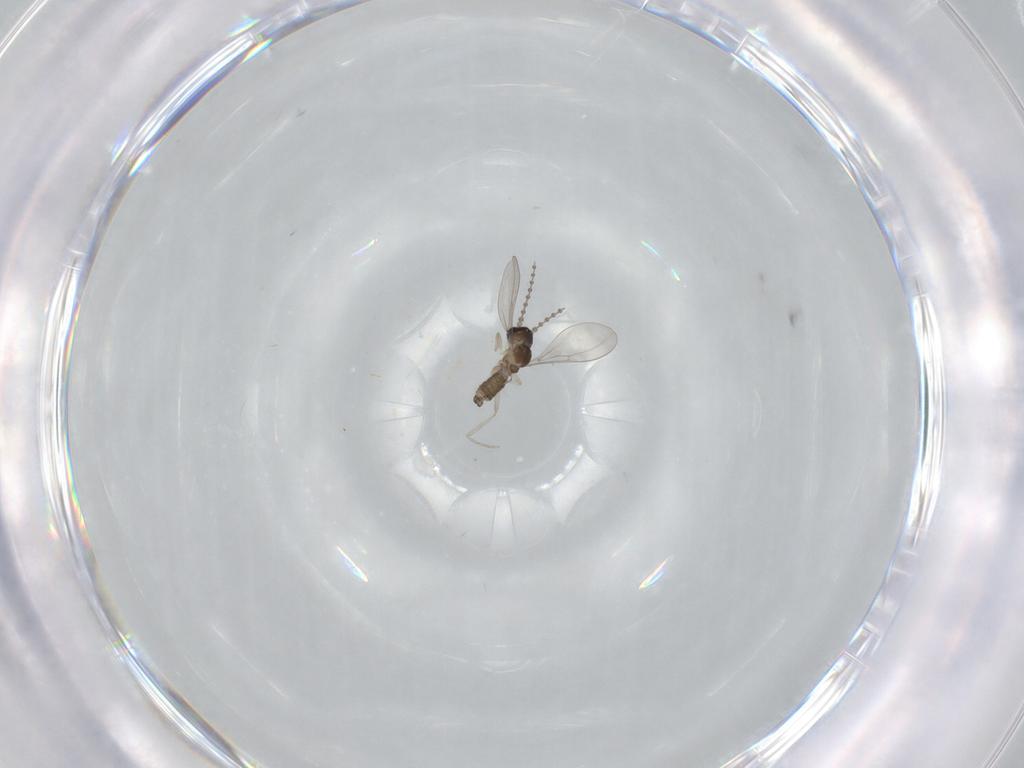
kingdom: Animalia
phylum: Arthropoda
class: Insecta
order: Diptera
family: Cecidomyiidae
